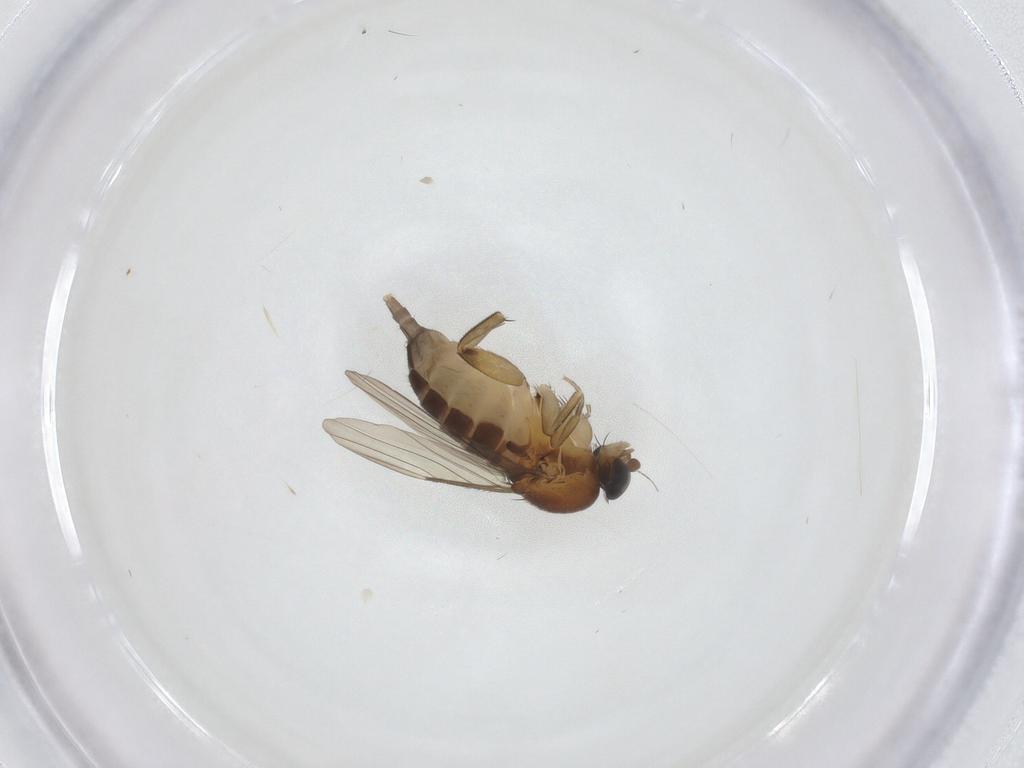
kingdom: Animalia
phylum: Arthropoda
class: Insecta
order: Diptera
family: Phoridae
